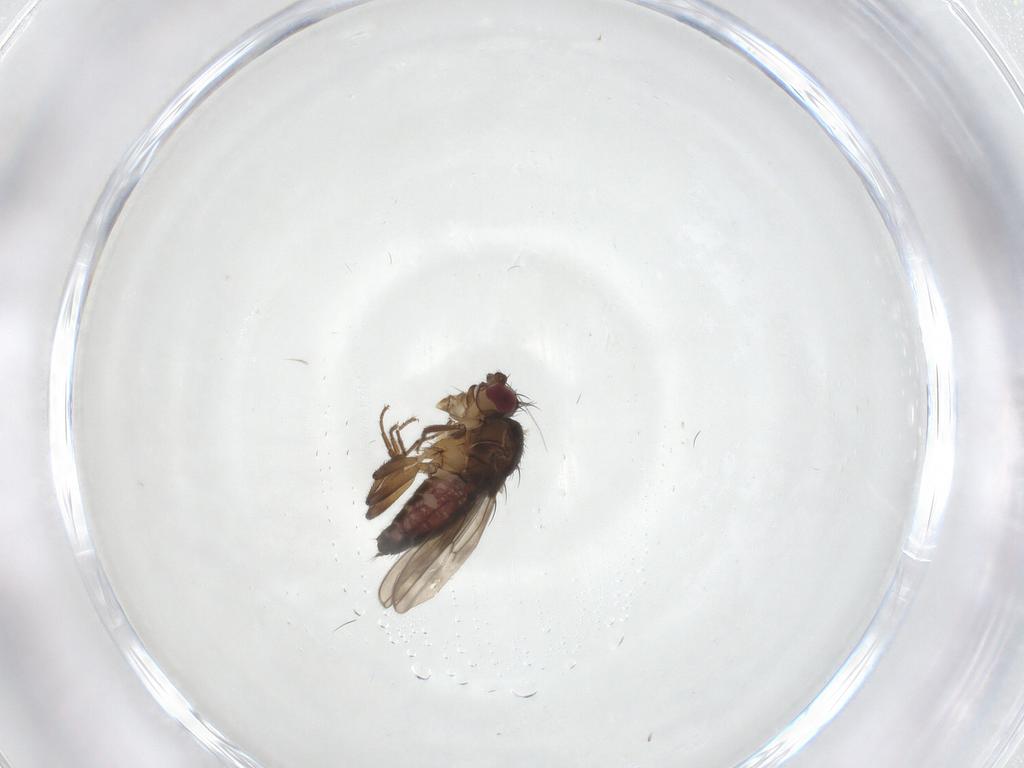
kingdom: Animalia
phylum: Arthropoda
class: Insecta
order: Diptera
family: Sphaeroceridae
